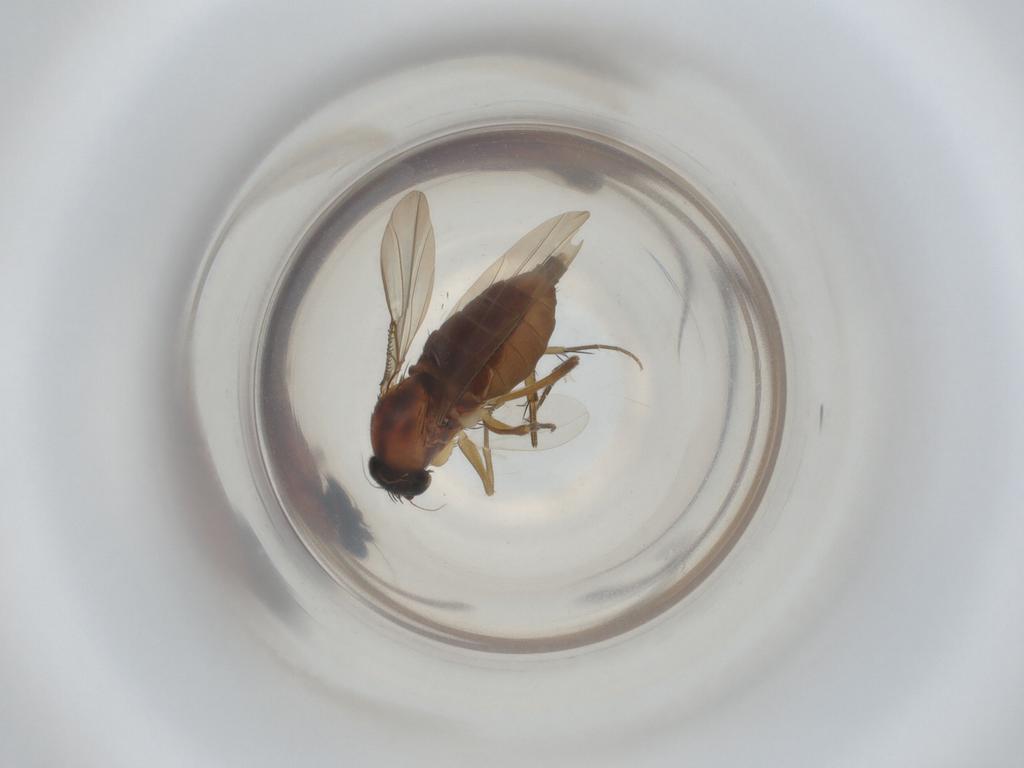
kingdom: Animalia
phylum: Arthropoda
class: Insecta
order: Diptera
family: Phoridae
